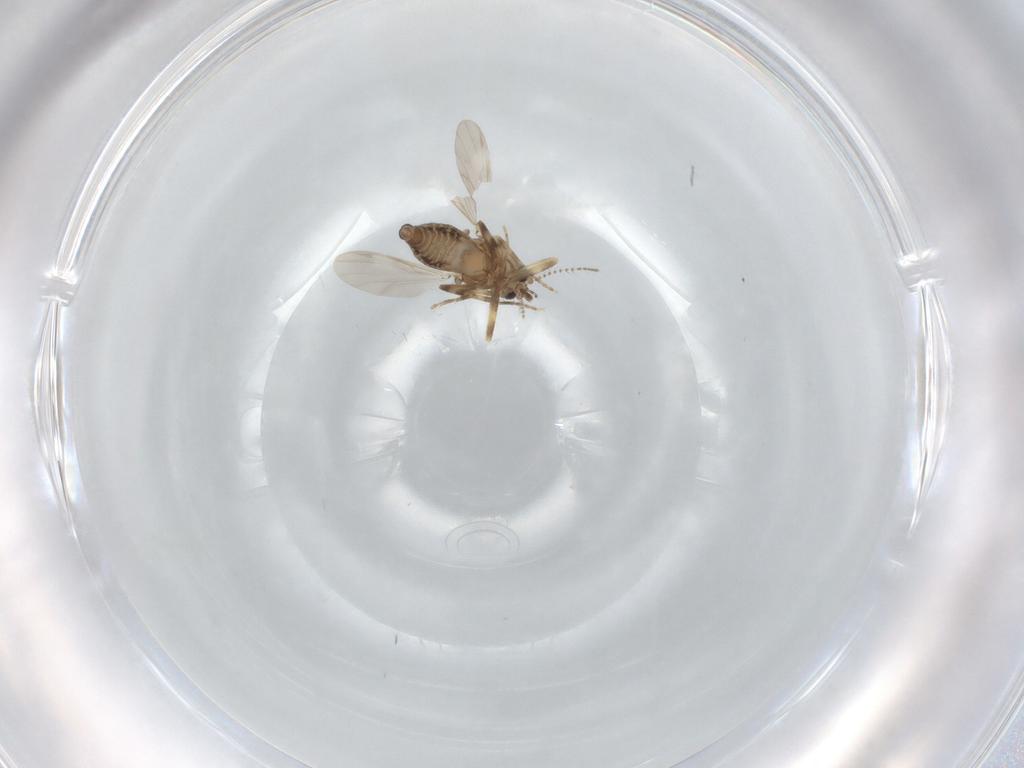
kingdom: Animalia
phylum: Arthropoda
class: Insecta
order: Diptera
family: Ceratopogonidae
